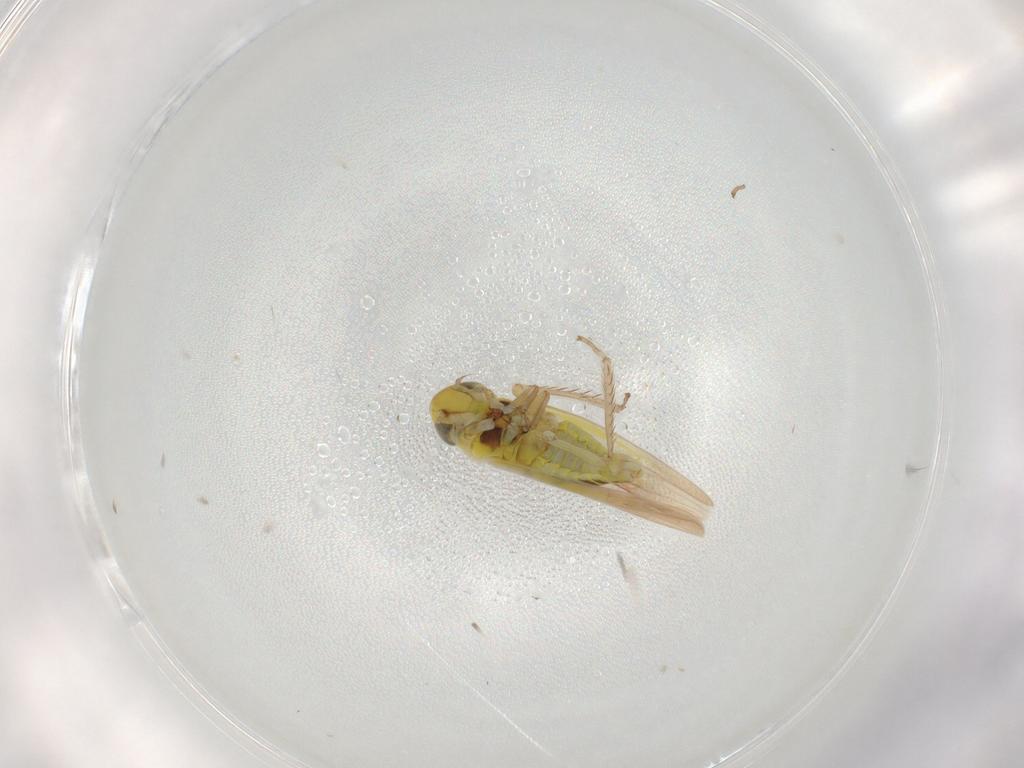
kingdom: Animalia
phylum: Arthropoda
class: Insecta
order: Hemiptera
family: Cicadellidae
